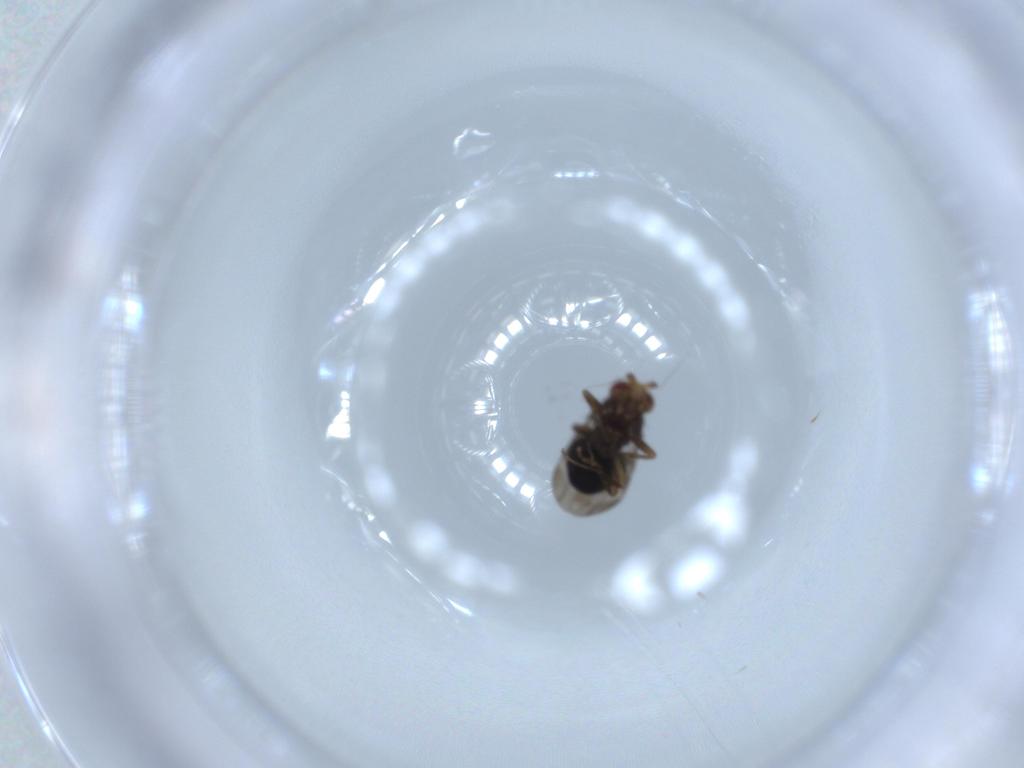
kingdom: Animalia
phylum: Arthropoda
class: Insecta
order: Diptera
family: Sphaeroceridae
